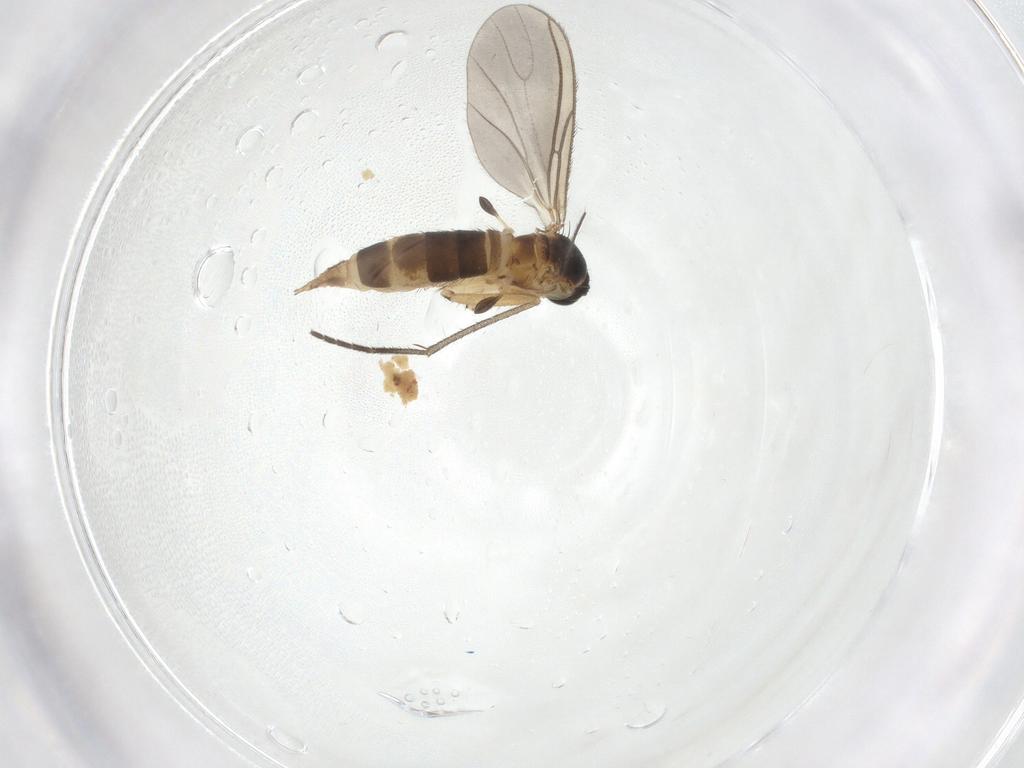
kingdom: Animalia
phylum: Arthropoda
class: Insecta
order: Diptera
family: Sciaridae
